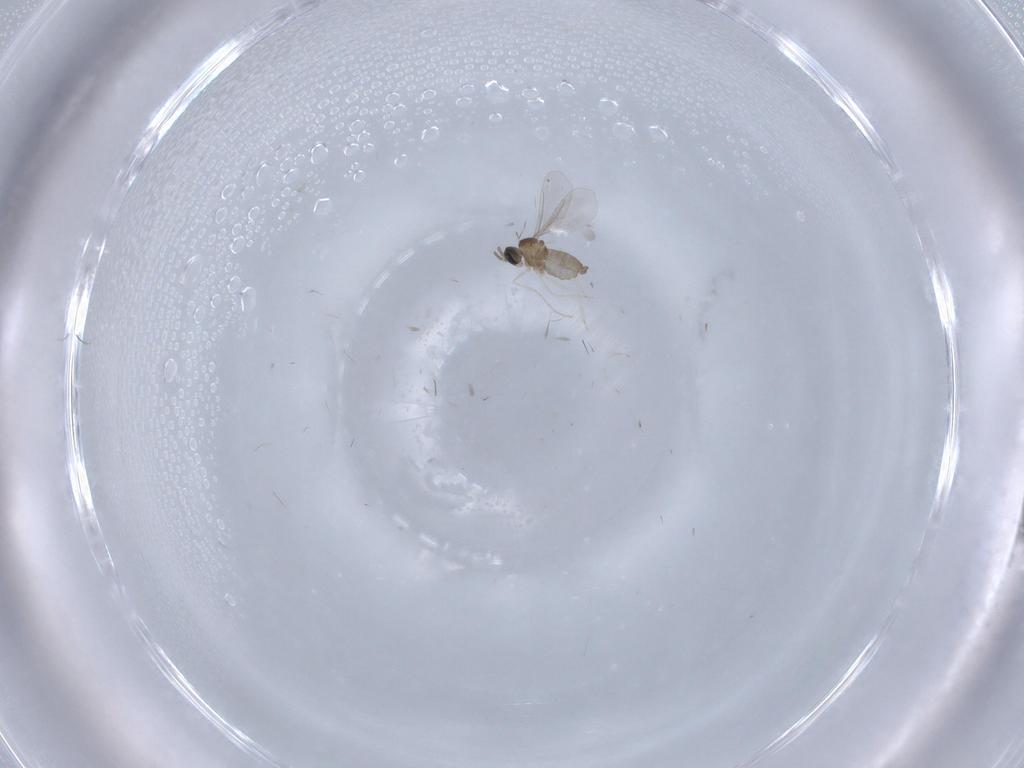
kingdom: Animalia
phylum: Arthropoda
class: Insecta
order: Diptera
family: Cecidomyiidae
